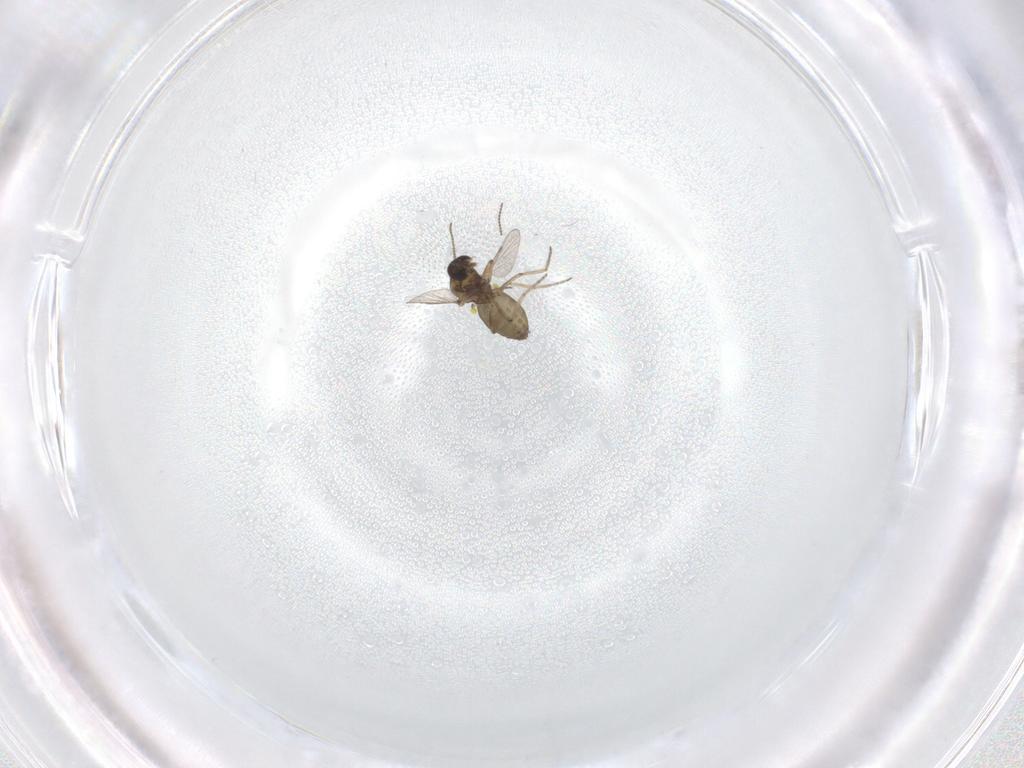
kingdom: Animalia
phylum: Arthropoda
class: Insecta
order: Diptera
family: Ceratopogonidae
